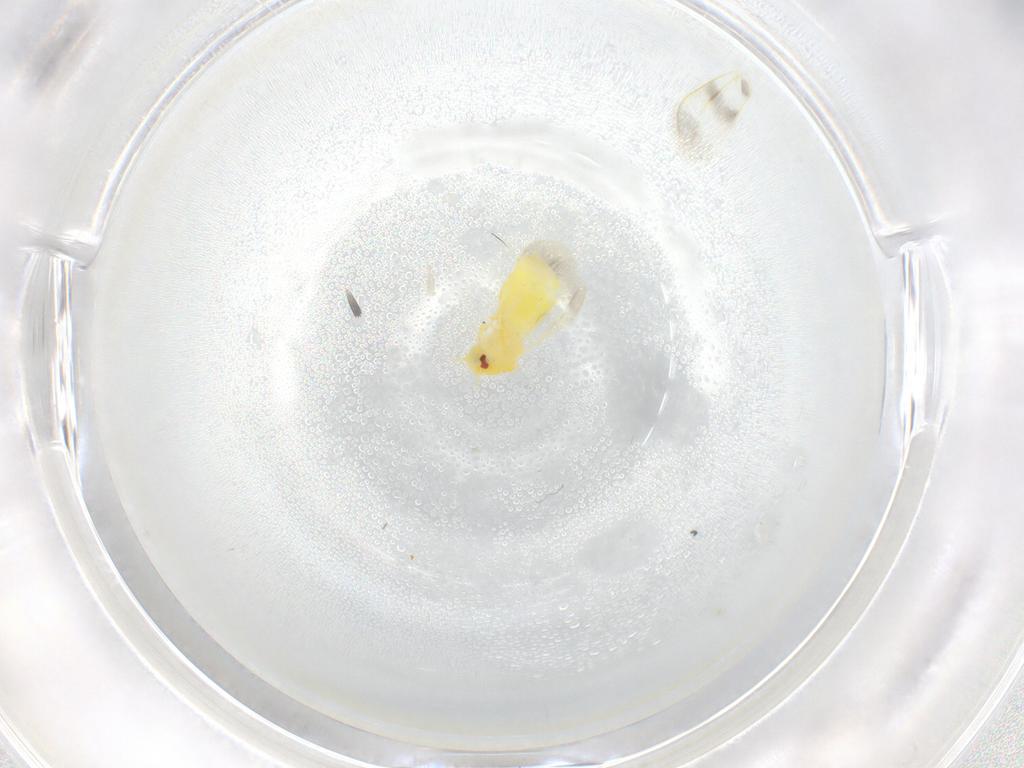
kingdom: Animalia
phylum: Arthropoda
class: Insecta
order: Hemiptera
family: Aleyrodidae
